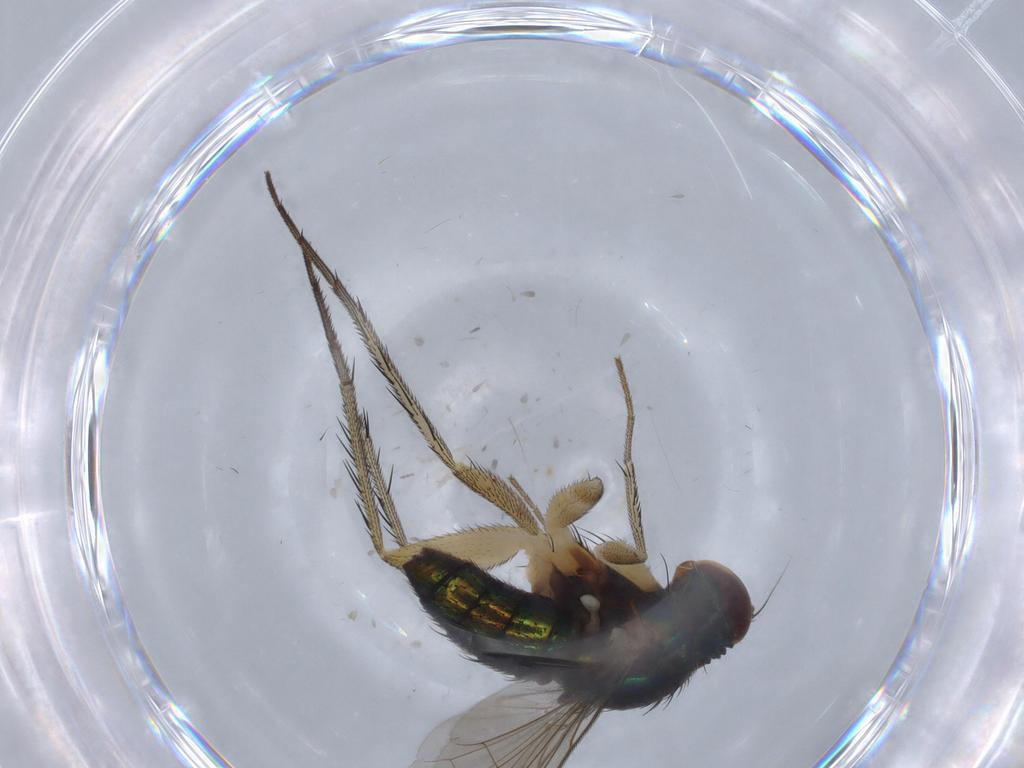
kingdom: Animalia
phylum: Arthropoda
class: Insecta
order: Diptera
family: Dolichopodidae
